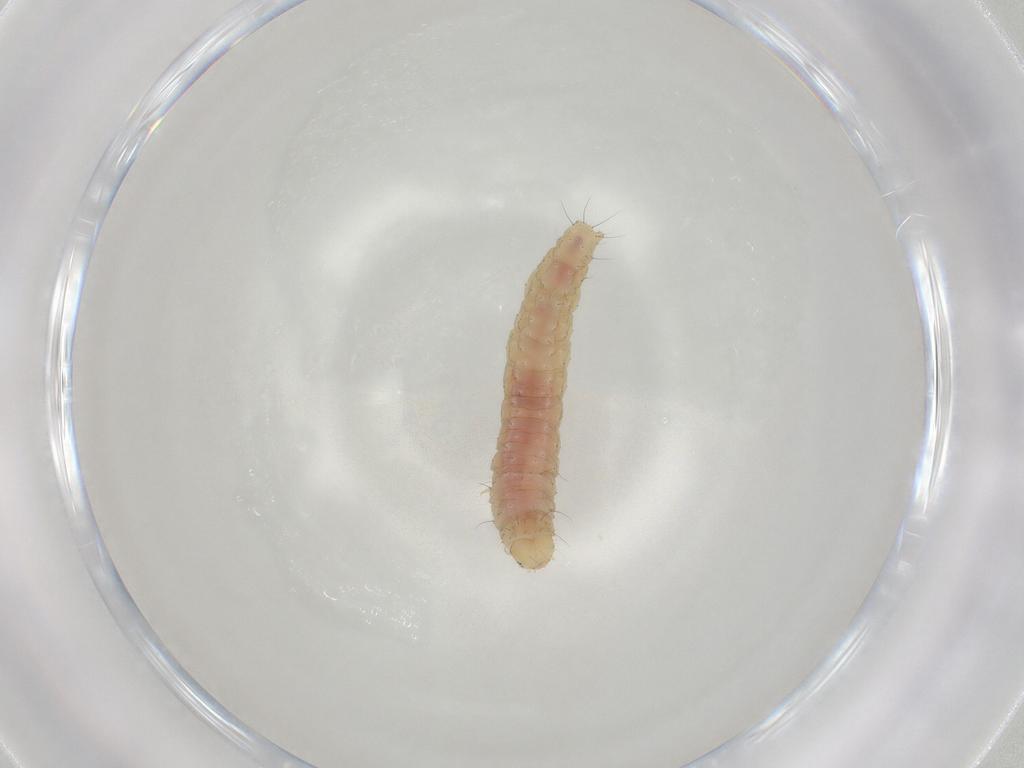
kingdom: Animalia
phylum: Arthropoda
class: Insecta
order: Lepidoptera
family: Gelechiidae
